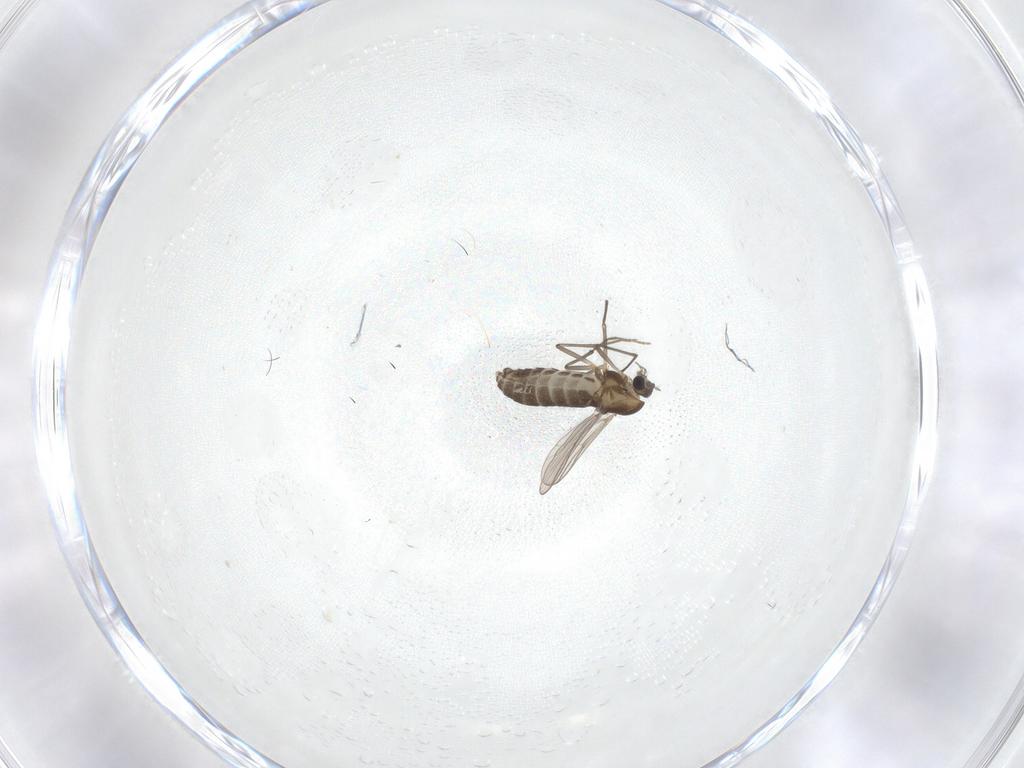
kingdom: Animalia
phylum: Arthropoda
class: Insecta
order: Diptera
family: Chironomidae
